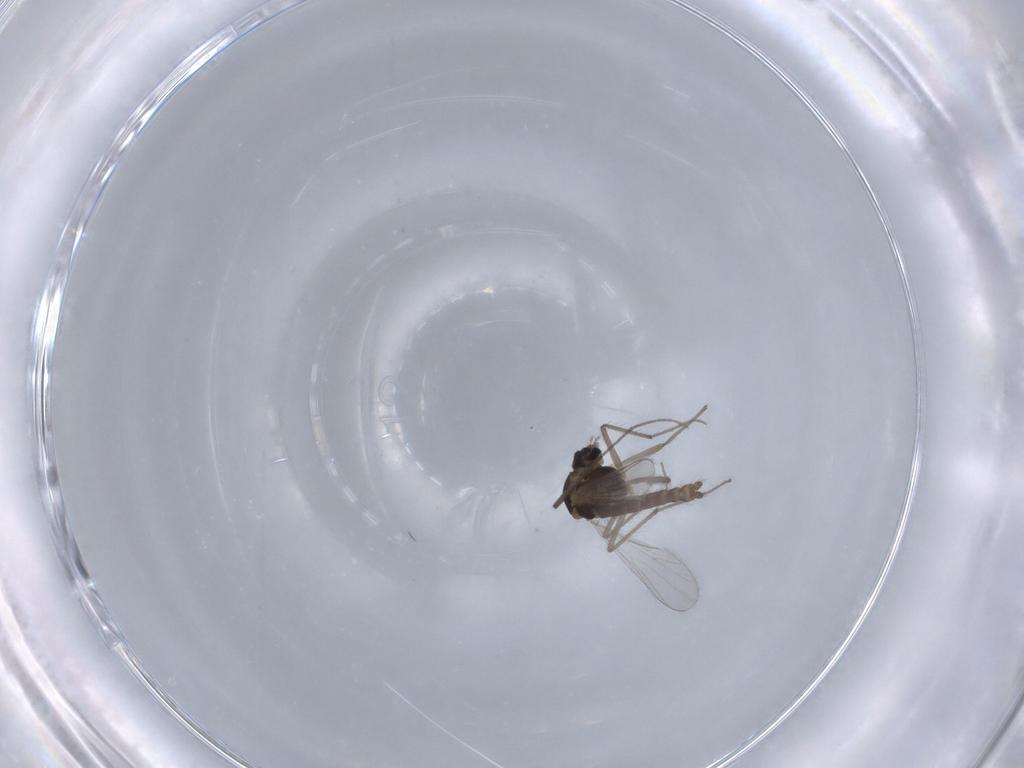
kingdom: Animalia
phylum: Arthropoda
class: Insecta
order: Diptera
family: Chironomidae
